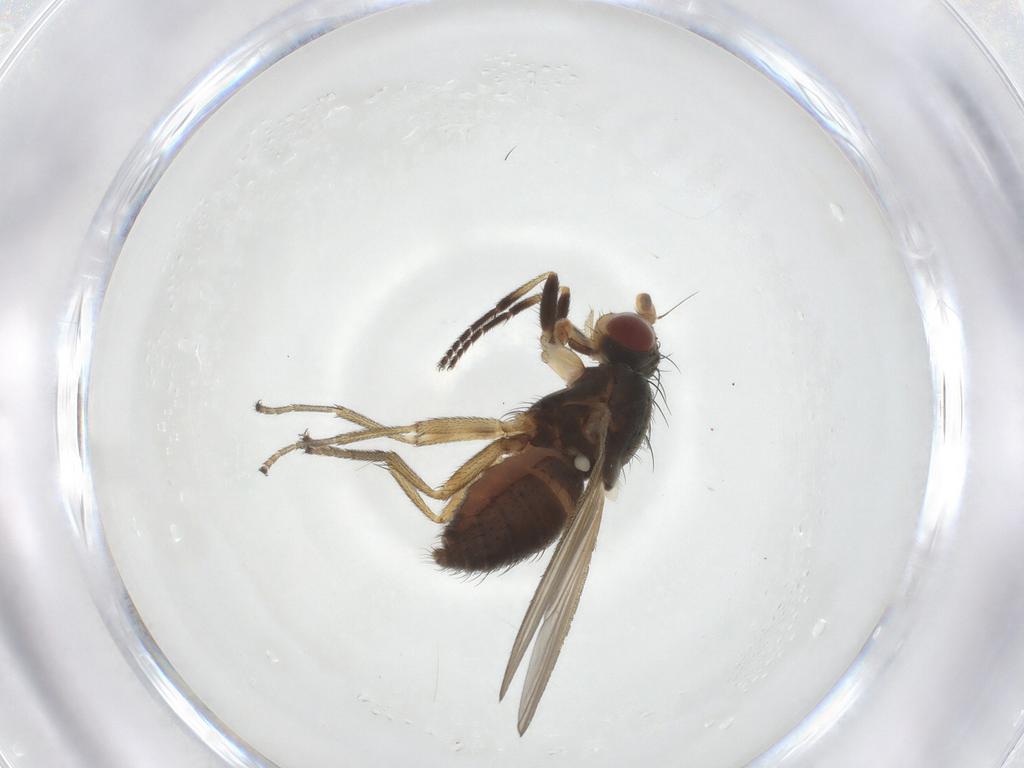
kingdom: Animalia
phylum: Arthropoda
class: Insecta
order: Diptera
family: Ulidiidae
